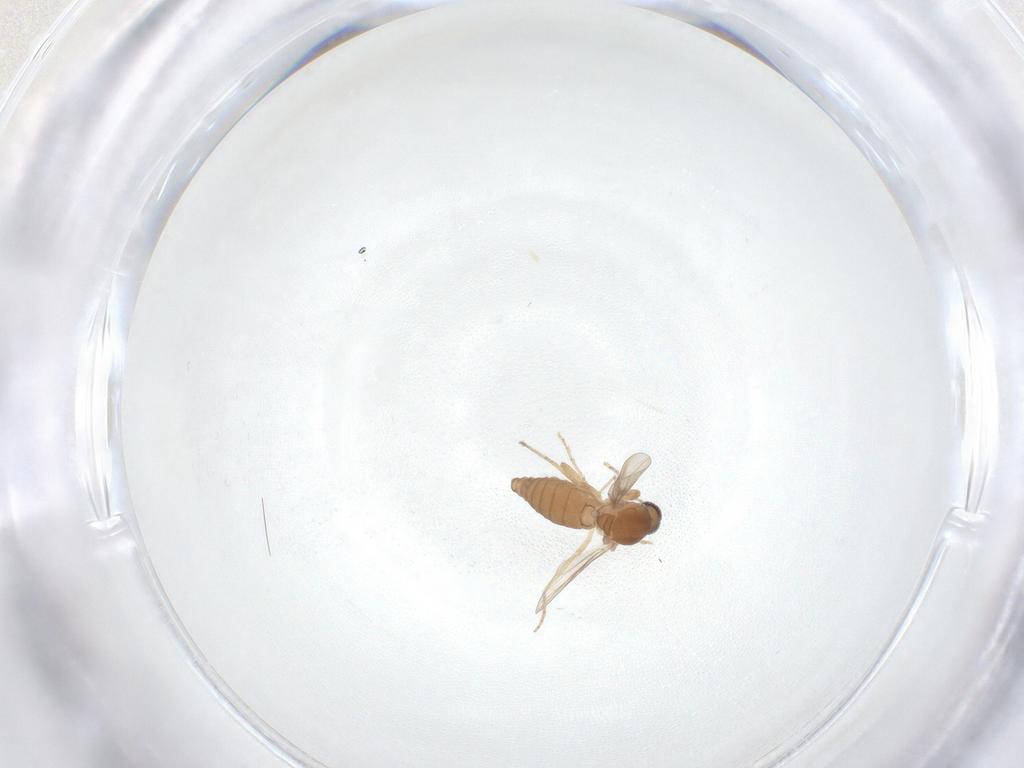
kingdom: Animalia
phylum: Arthropoda
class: Insecta
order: Diptera
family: Ceratopogonidae
